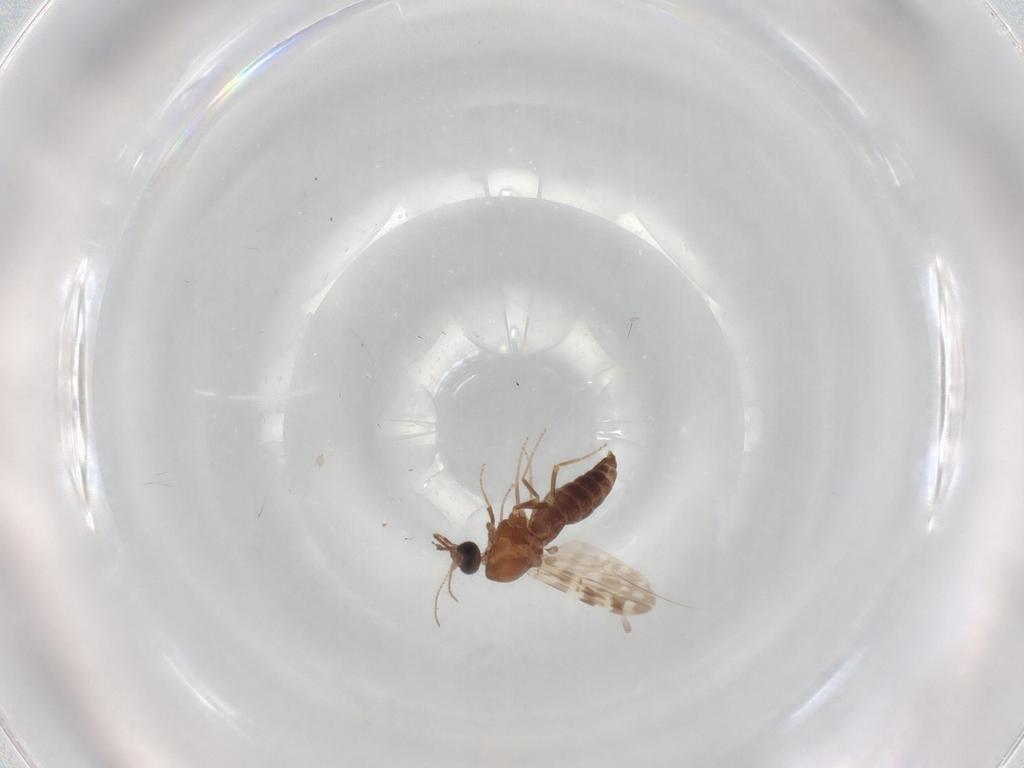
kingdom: Animalia
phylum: Arthropoda
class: Insecta
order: Diptera
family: Ceratopogonidae
